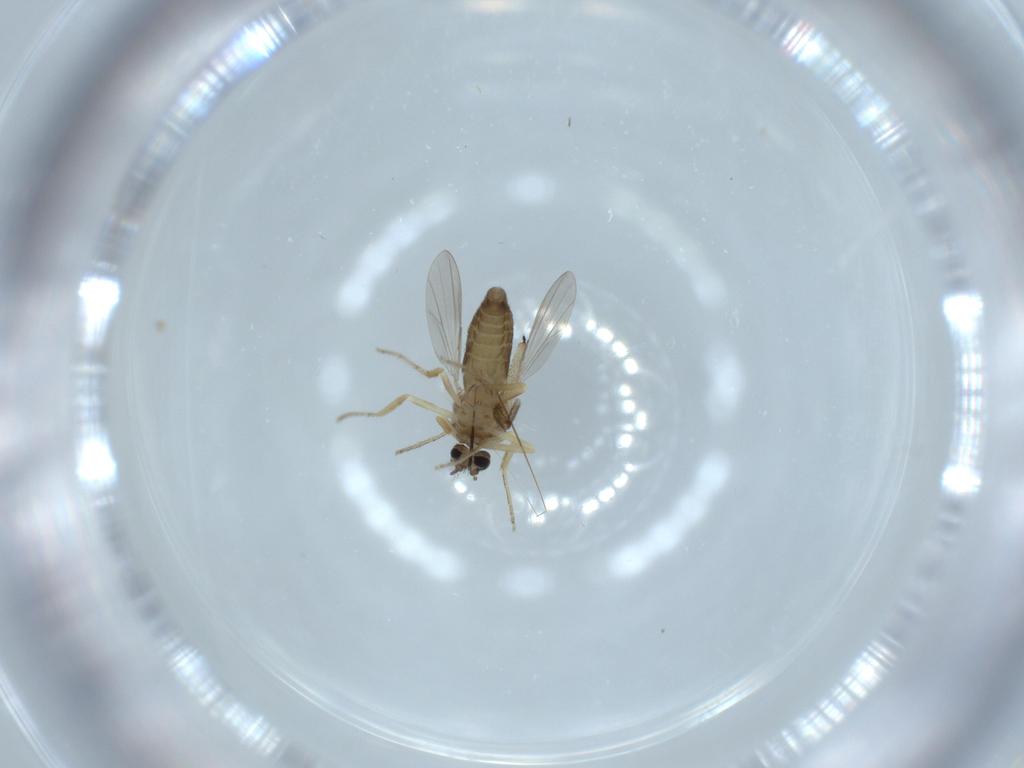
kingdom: Animalia
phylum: Arthropoda
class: Insecta
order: Diptera
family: Ceratopogonidae
